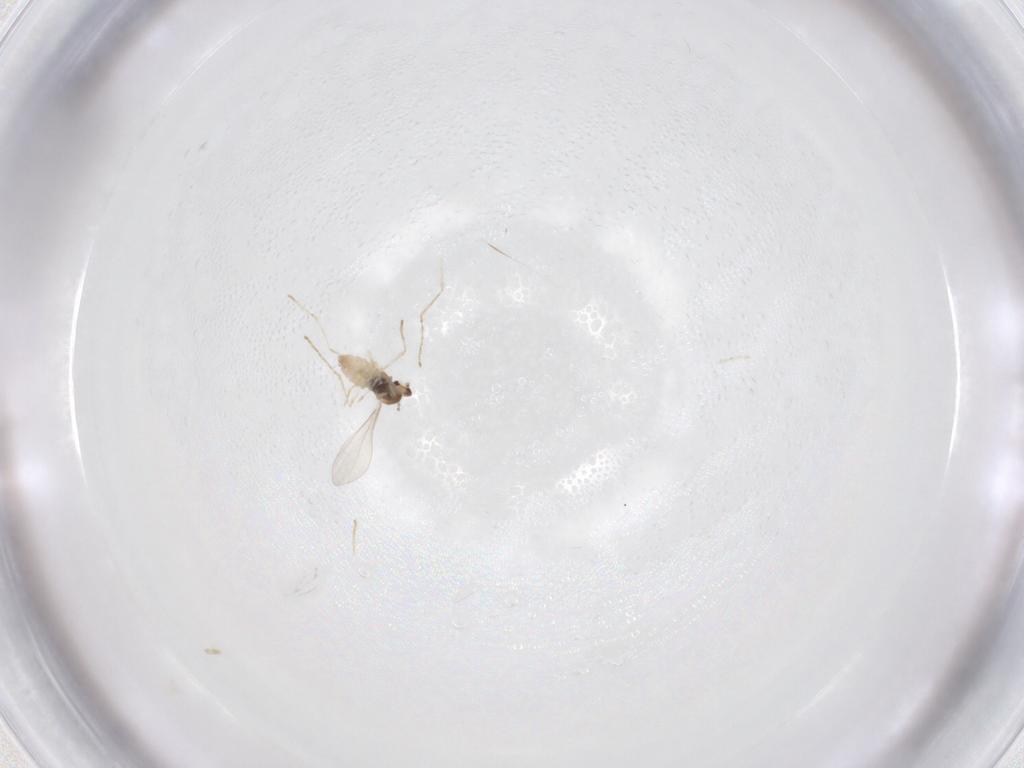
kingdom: Animalia
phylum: Arthropoda
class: Insecta
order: Diptera
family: Cecidomyiidae
